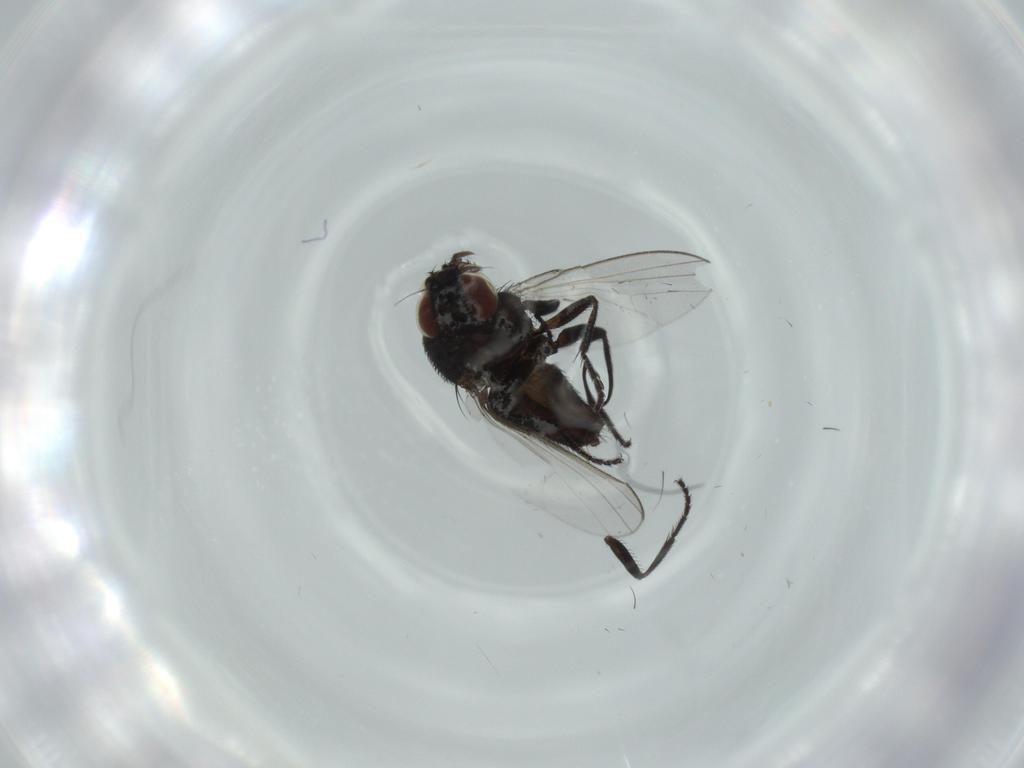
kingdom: Animalia
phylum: Arthropoda
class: Insecta
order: Diptera
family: Milichiidae
